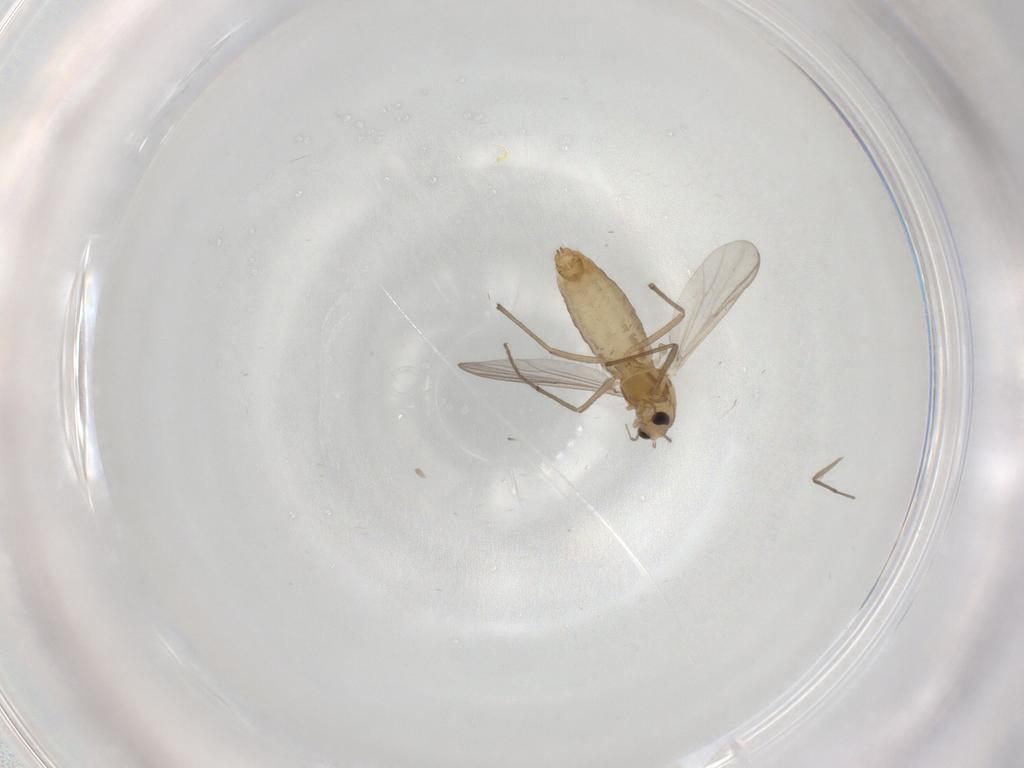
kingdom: Animalia
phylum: Arthropoda
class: Insecta
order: Diptera
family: Chironomidae
